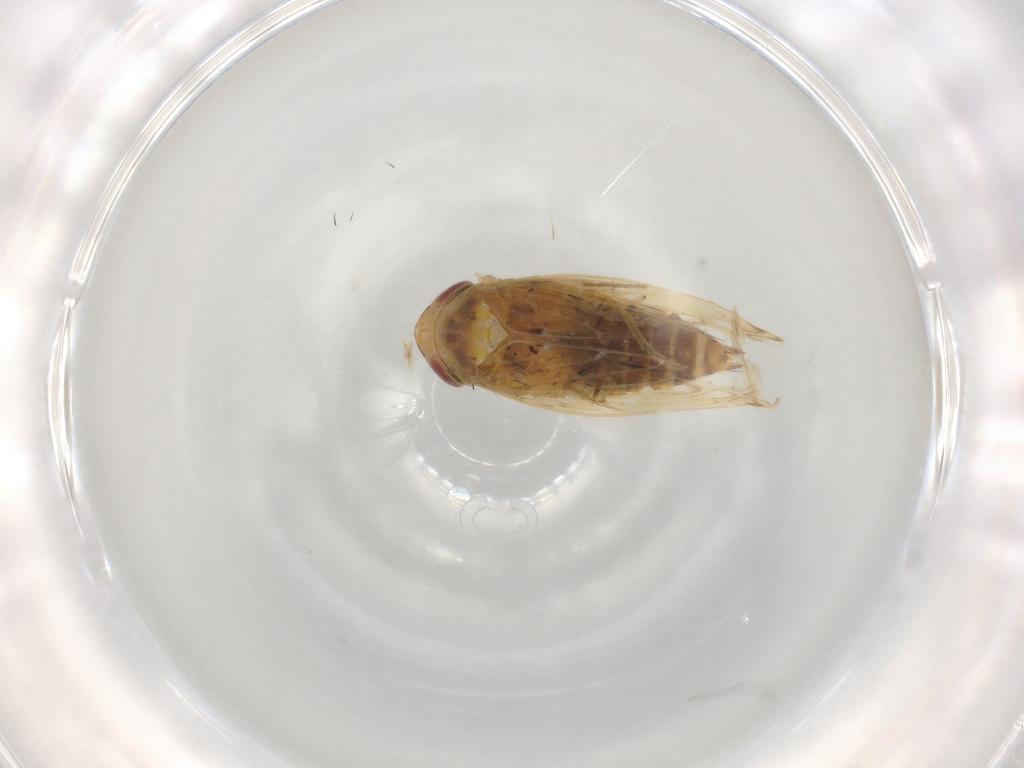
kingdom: Animalia
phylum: Arthropoda
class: Insecta
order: Hemiptera
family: Cicadellidae
